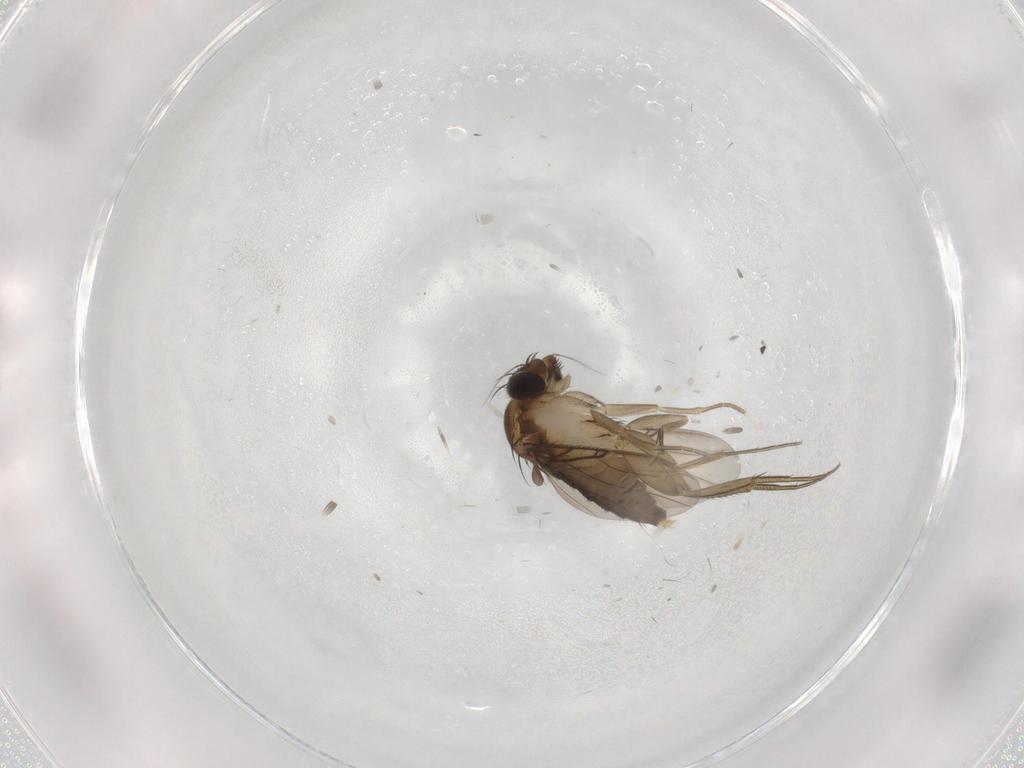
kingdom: Animalia
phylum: Arthropoda
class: Insecta
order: Diptera
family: Phoridae
